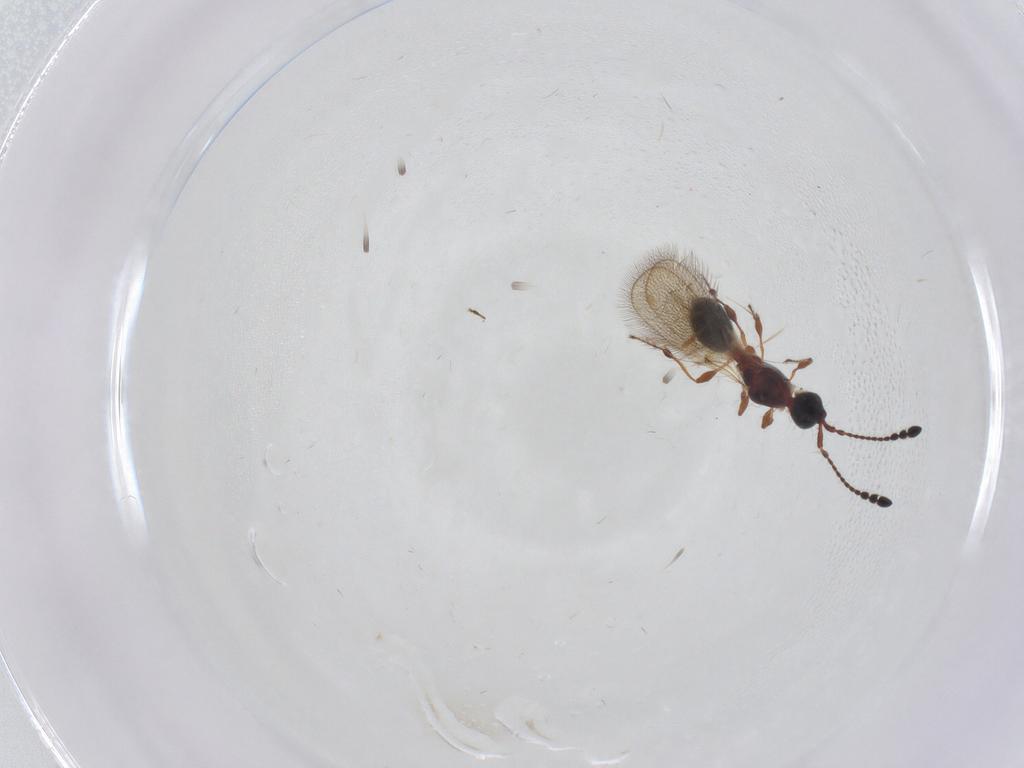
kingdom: Animalia
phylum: Arthropoda
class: Insecta
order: Hymenoptera
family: Diapriidae
